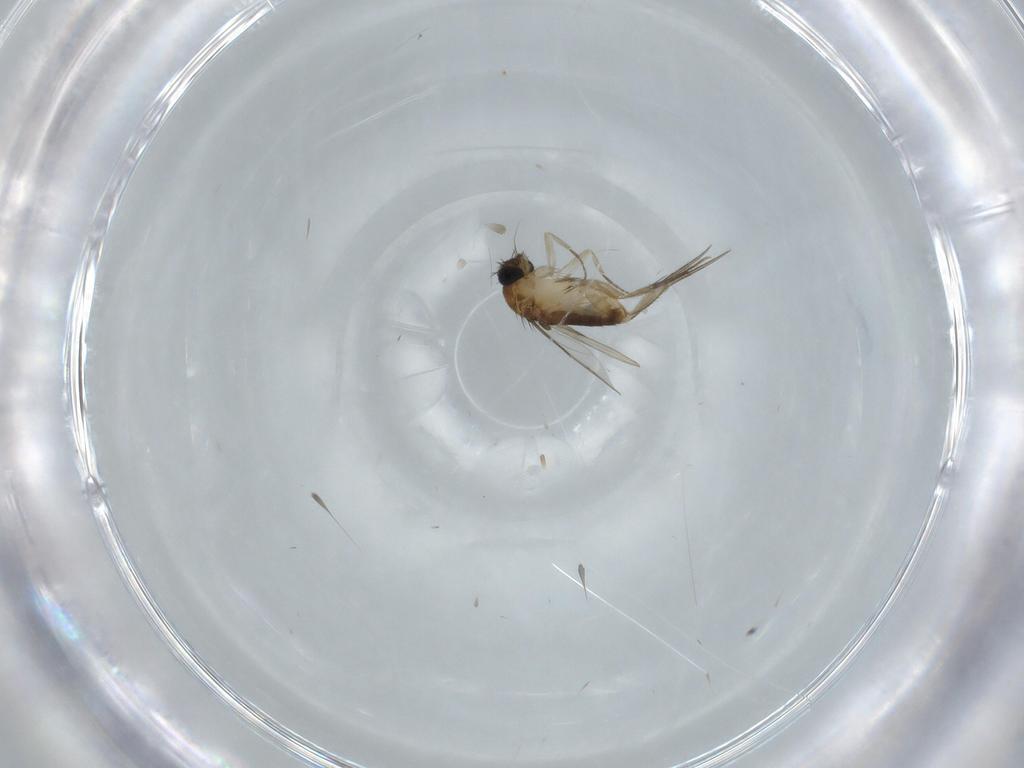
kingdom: Animalia
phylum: Arthropoda
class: Insecta
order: Diptera
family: Phoridae
